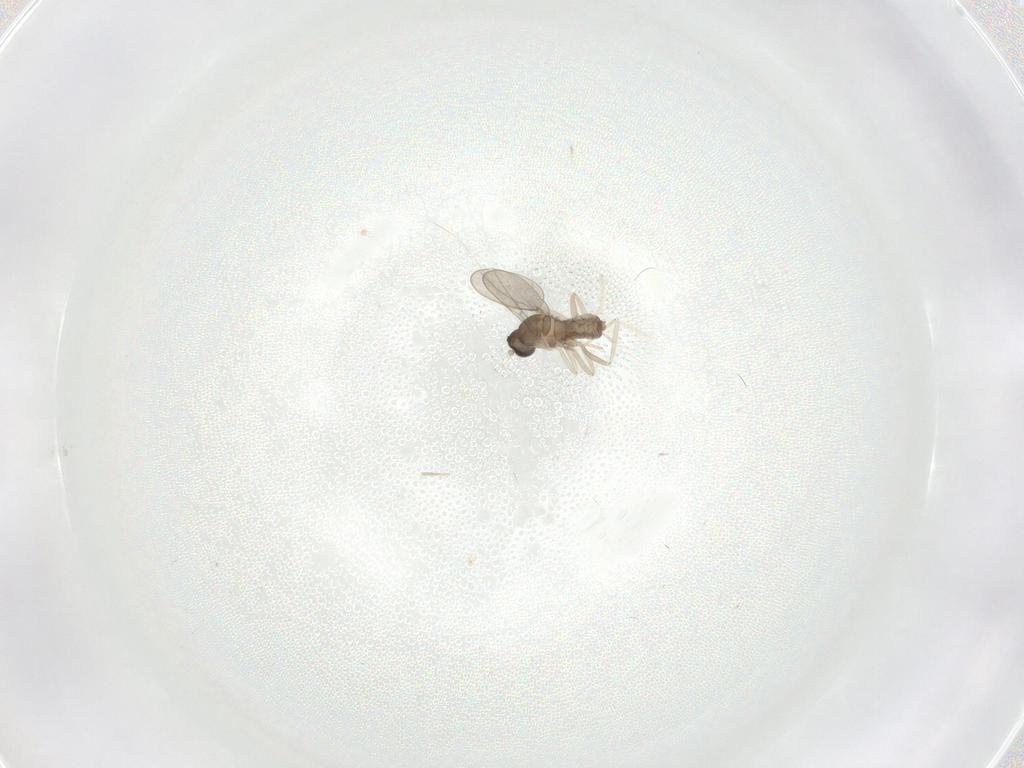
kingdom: Animalia
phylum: Arthropoda
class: Insecta
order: Diptera
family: Cecidomyiidae
